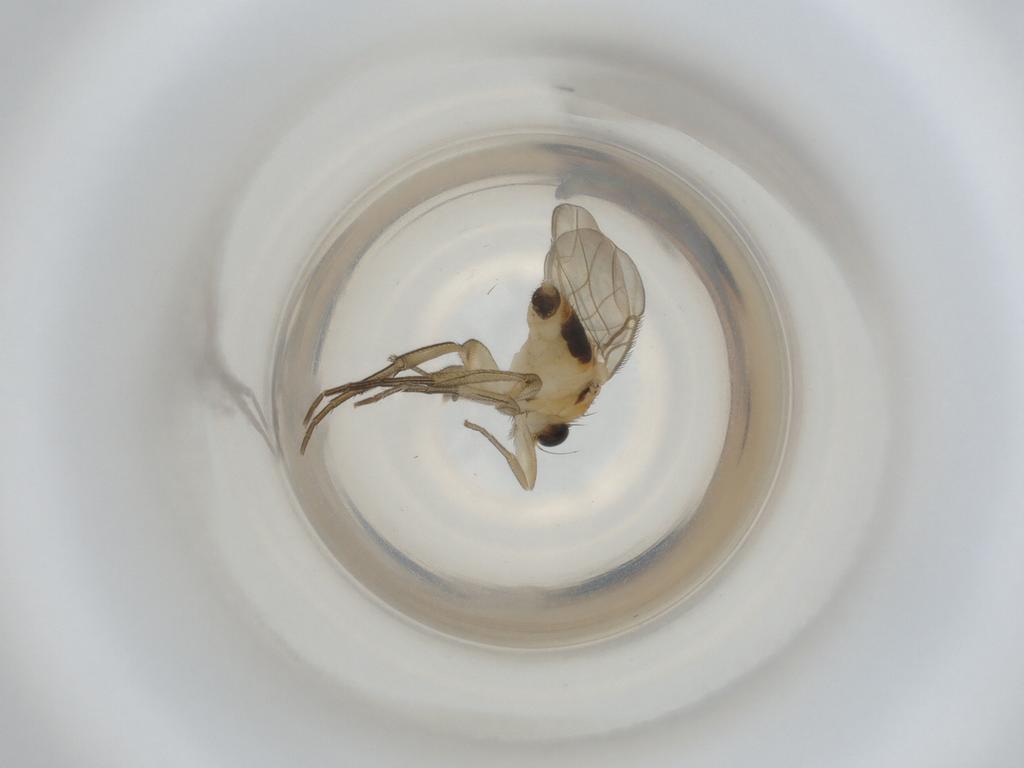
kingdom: Animalia
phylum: Arthropoda
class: Insecta
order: Diptera
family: Phoridae
